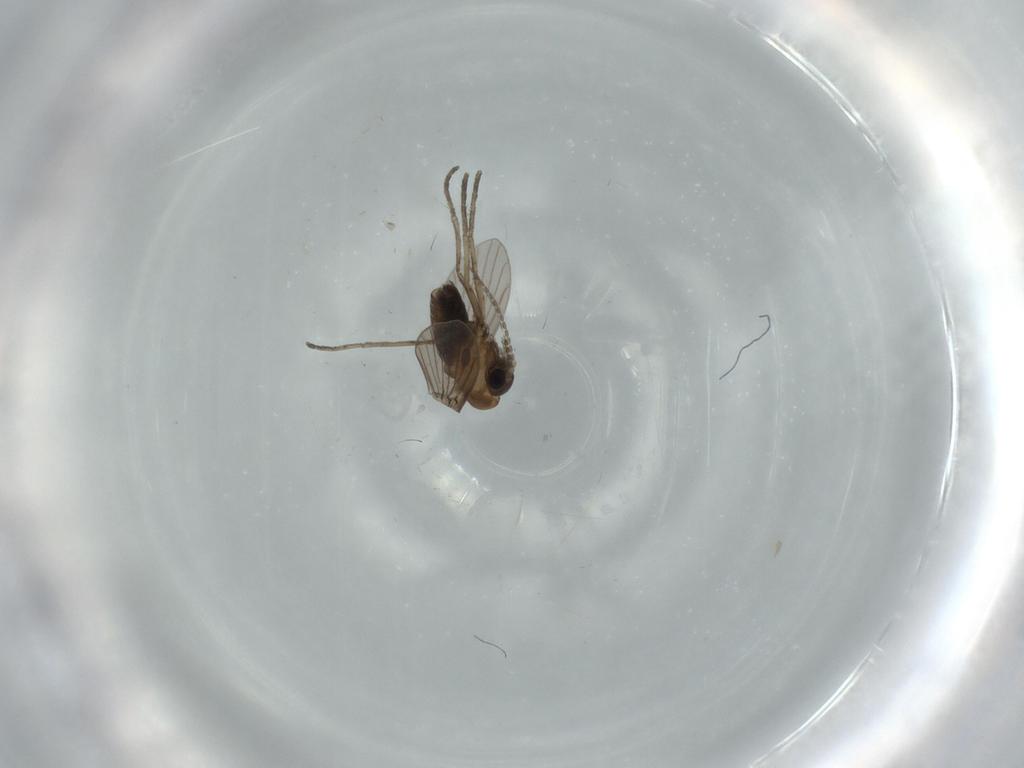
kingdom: Animalia
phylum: Arthropoda
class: Insecta
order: Diptera
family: Psychodidae
